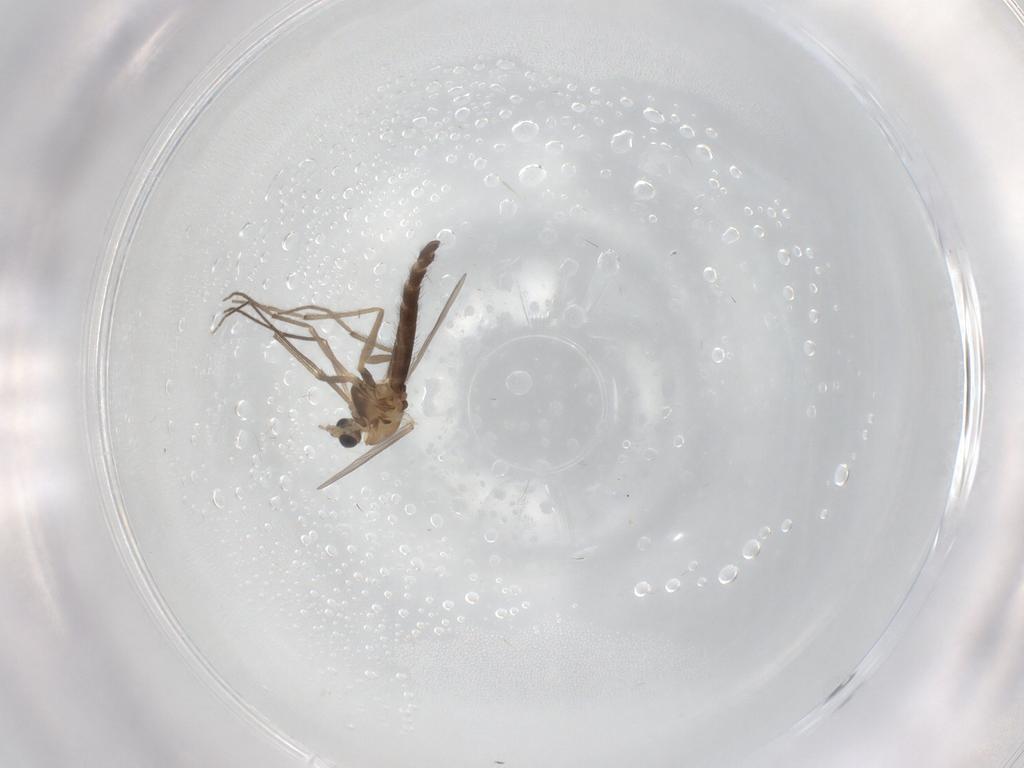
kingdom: Animalia
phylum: Arthropoda
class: Insecta
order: Diptera
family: Chironomidae
